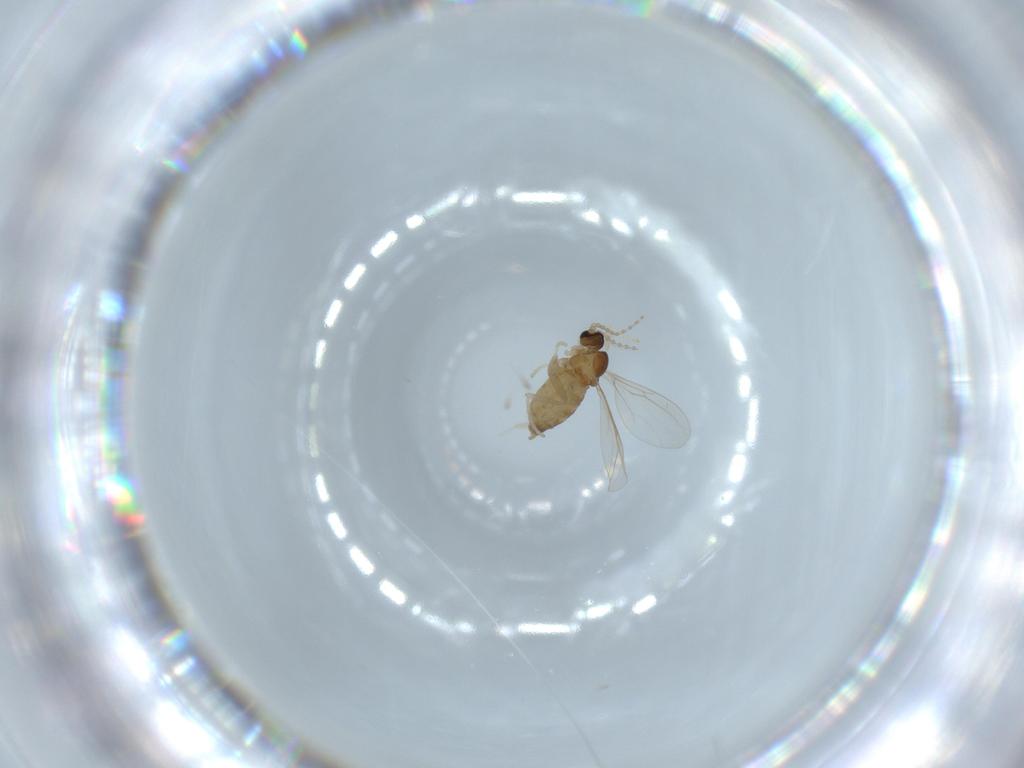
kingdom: Animalia
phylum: Arthropoda
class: Insecta
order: Diptera
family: Cecidomyiidae
